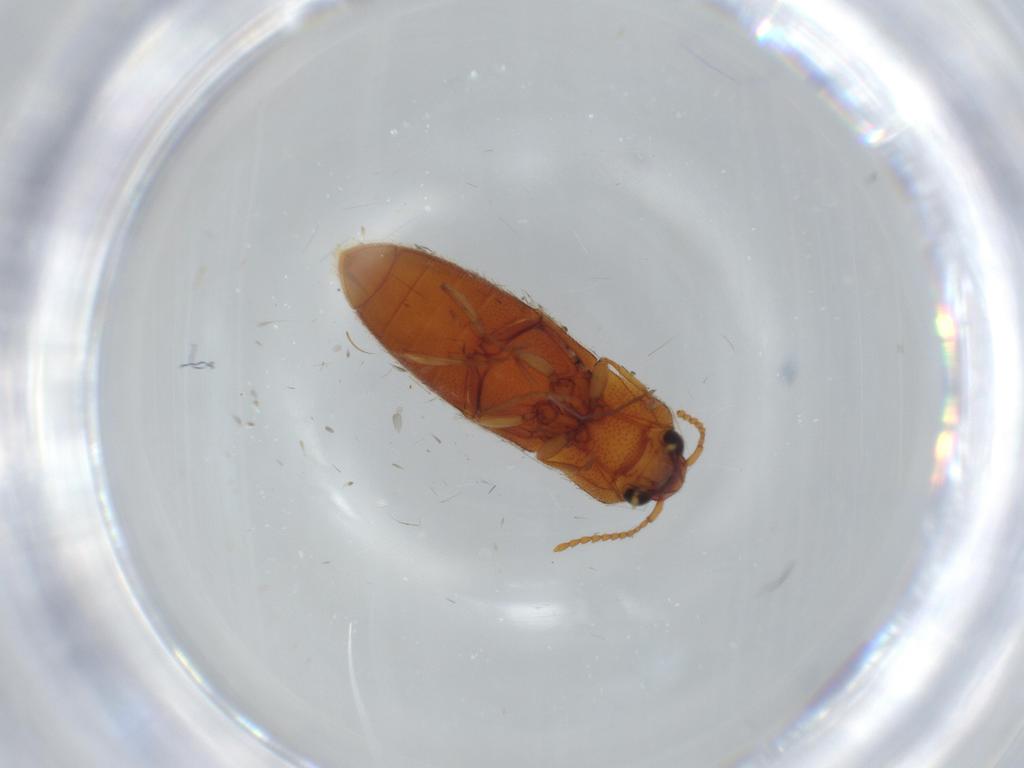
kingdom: Animalia
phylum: Arthropoda
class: Insecta
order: Coleoptera
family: Elateridae
